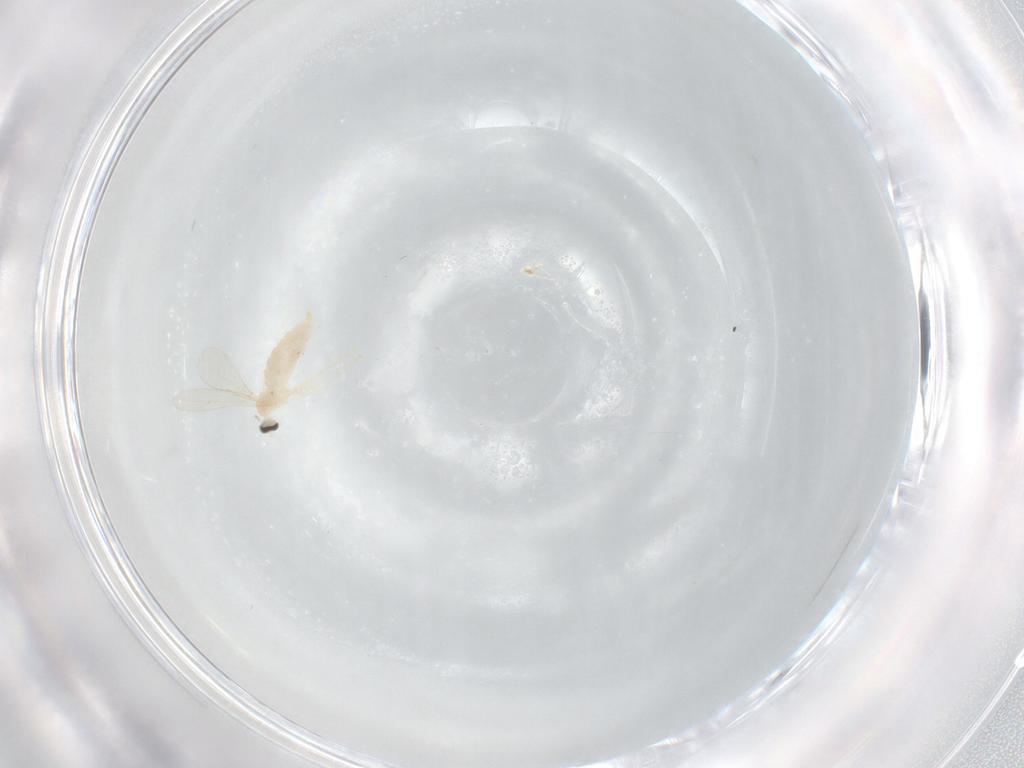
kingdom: Animalia
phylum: Arthropoda
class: Insecta
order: Diptera
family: Cecidomyiidae
